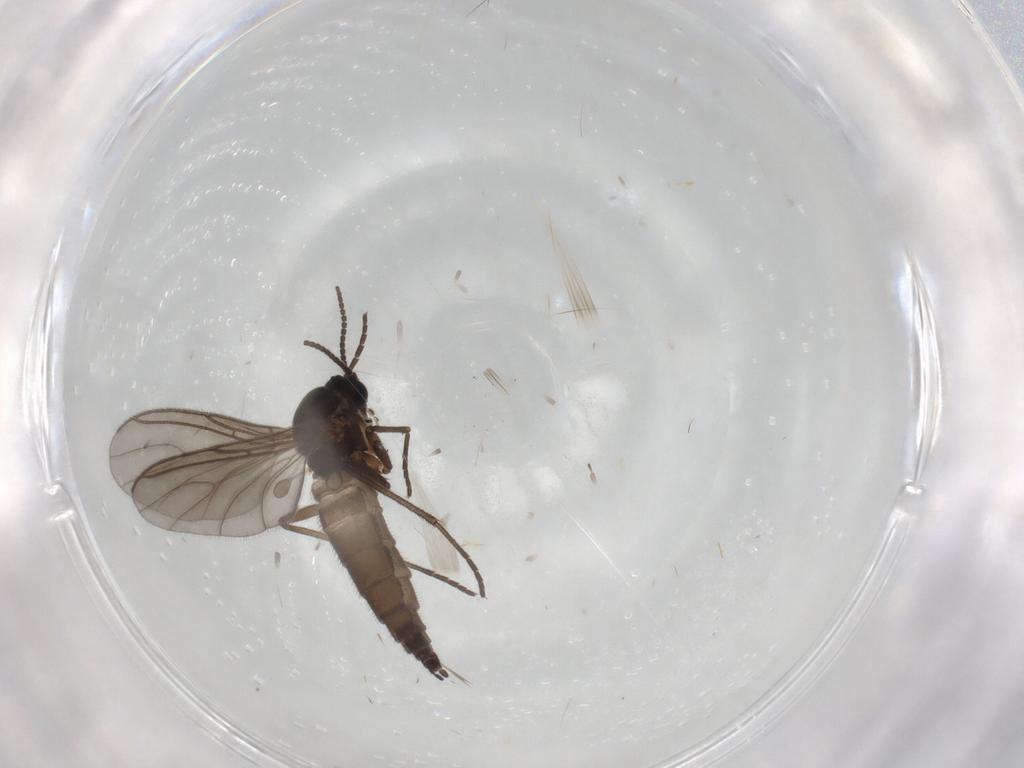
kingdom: Animalia
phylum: Arthropoda
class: Insecta
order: Diptera
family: Sciaridae
